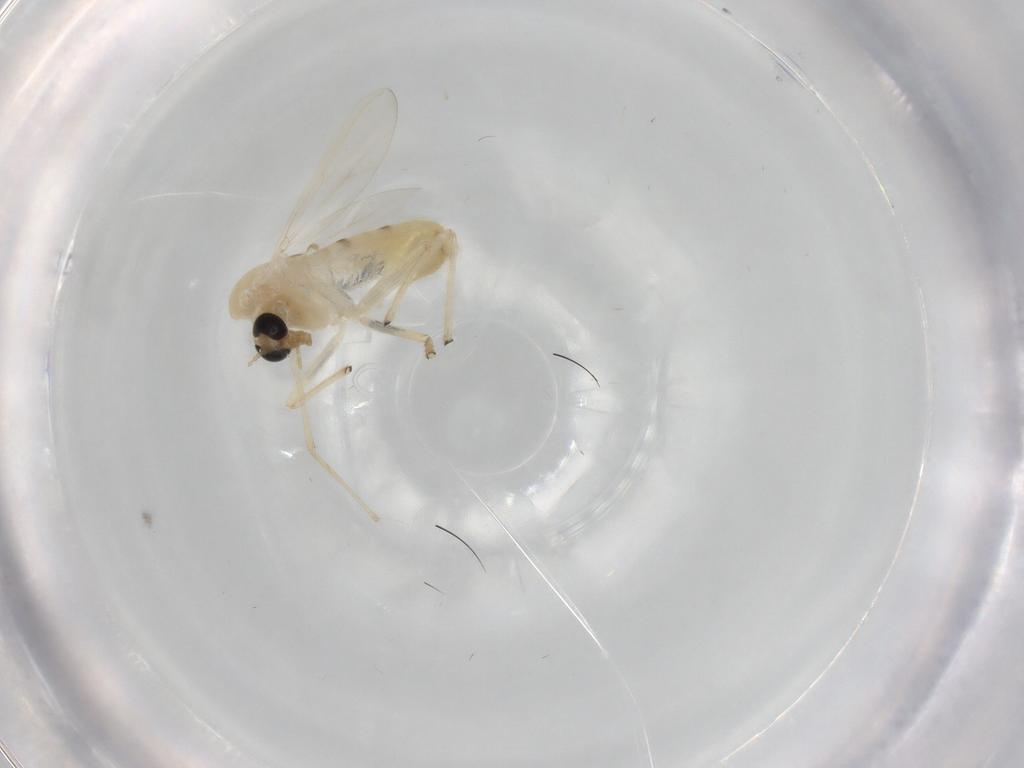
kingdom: Animalia
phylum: Arthropoda
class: Insecta
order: Diptera
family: Chironomidae
